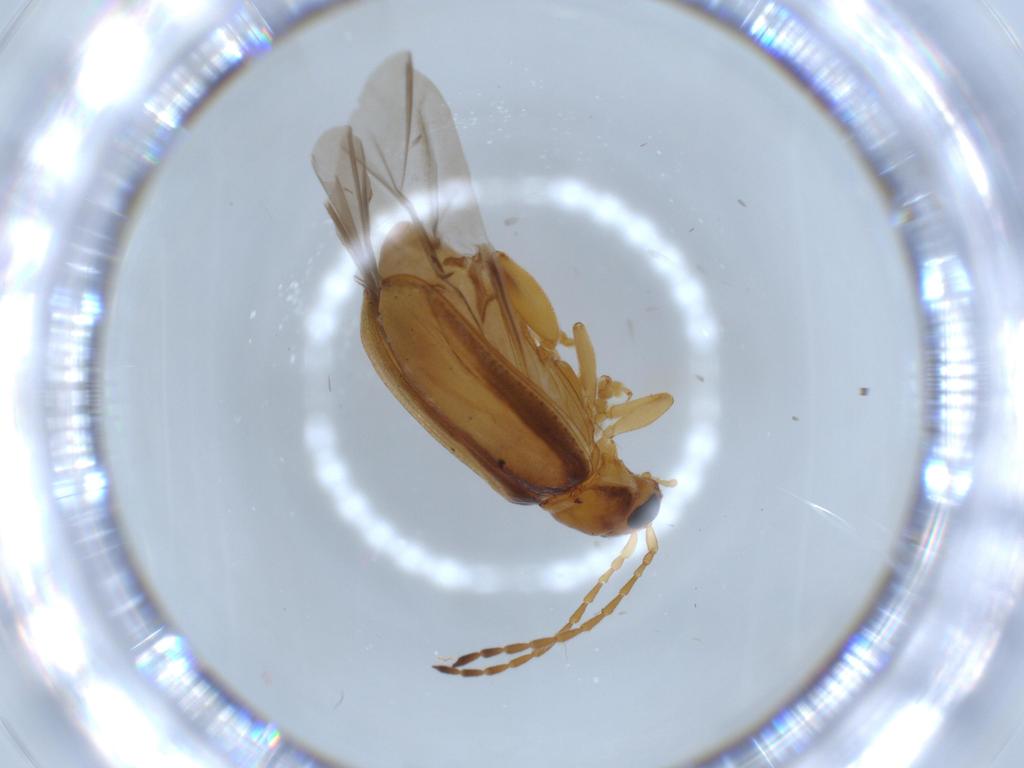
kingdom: Animalia
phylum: Arthropoda
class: Insecta
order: Coleoptera
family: Chrysomelidae
